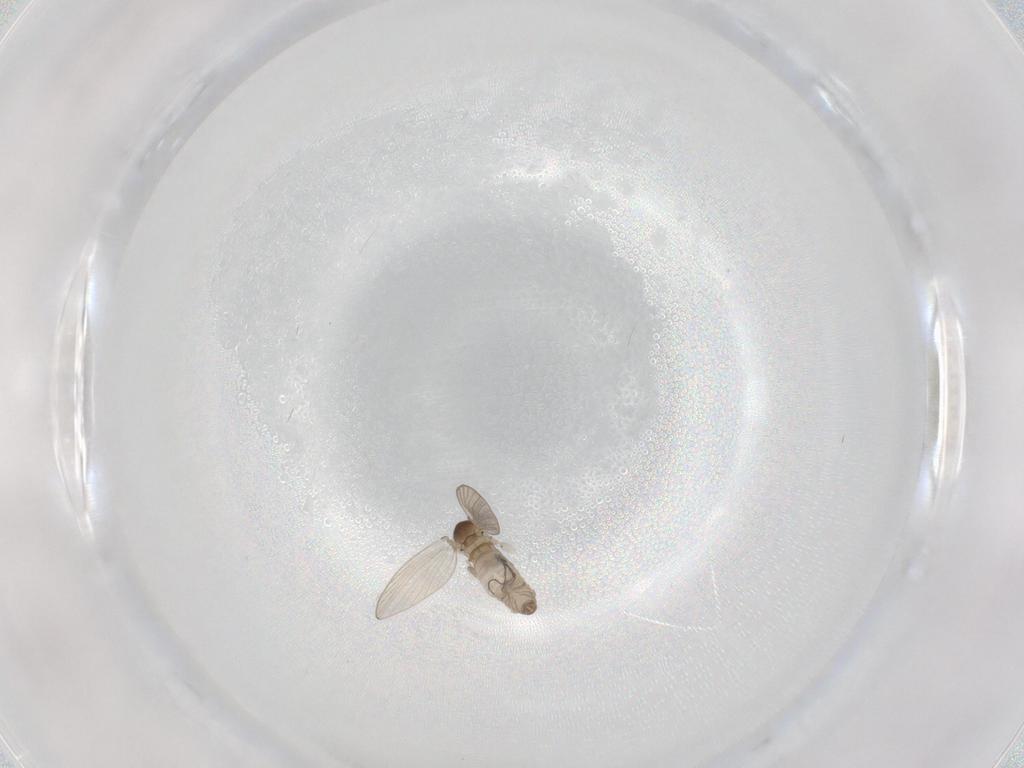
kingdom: Animalia
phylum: Arthropoda
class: Insecta
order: Diptera
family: Psychodidae
